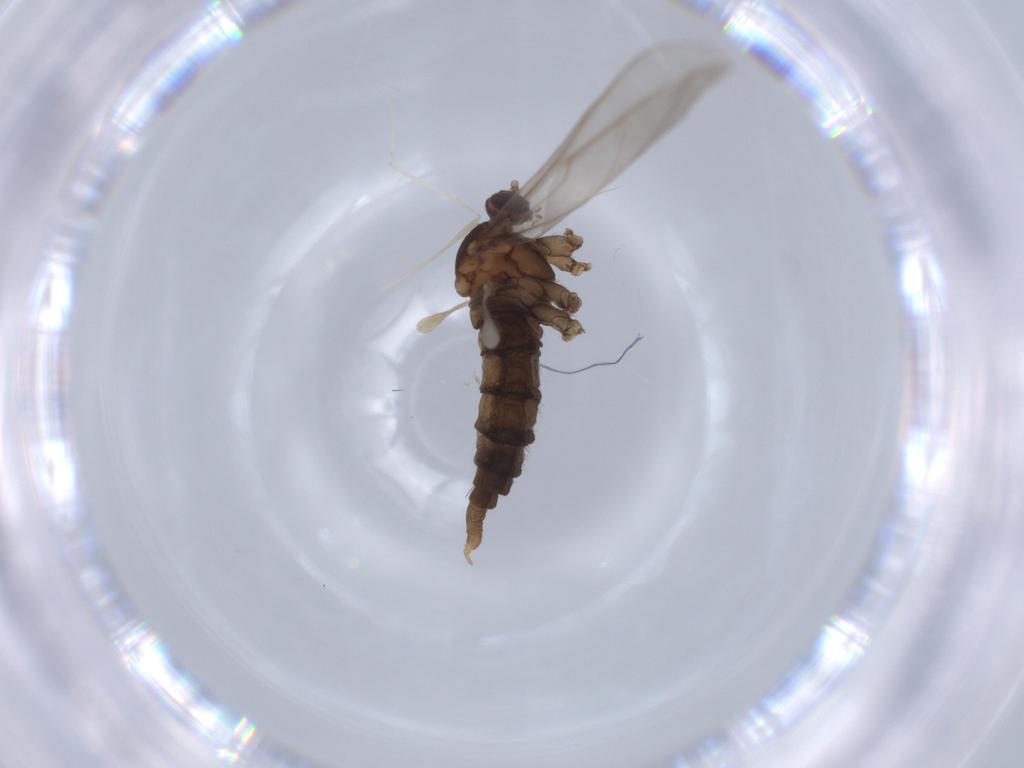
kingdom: Animalia
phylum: Arthropoda
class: Insecta
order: Diptera
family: Cecidomyiidae
